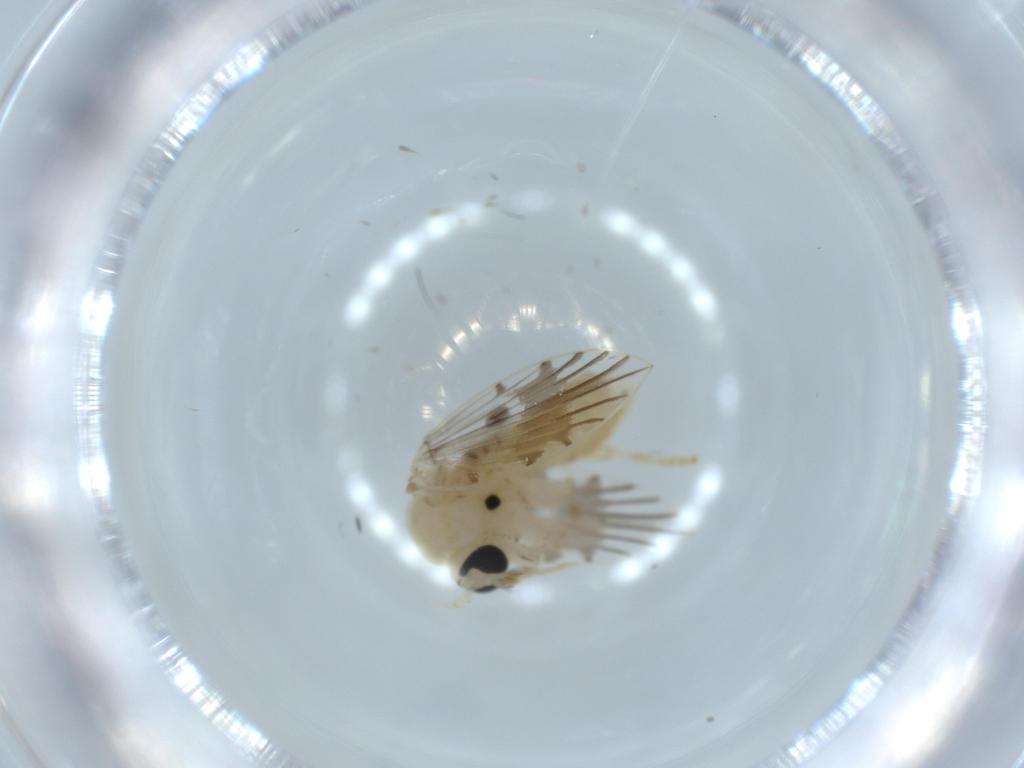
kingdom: Animalia
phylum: Arthropoda
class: Insecta
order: Diptera
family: Cecidomyiidae
